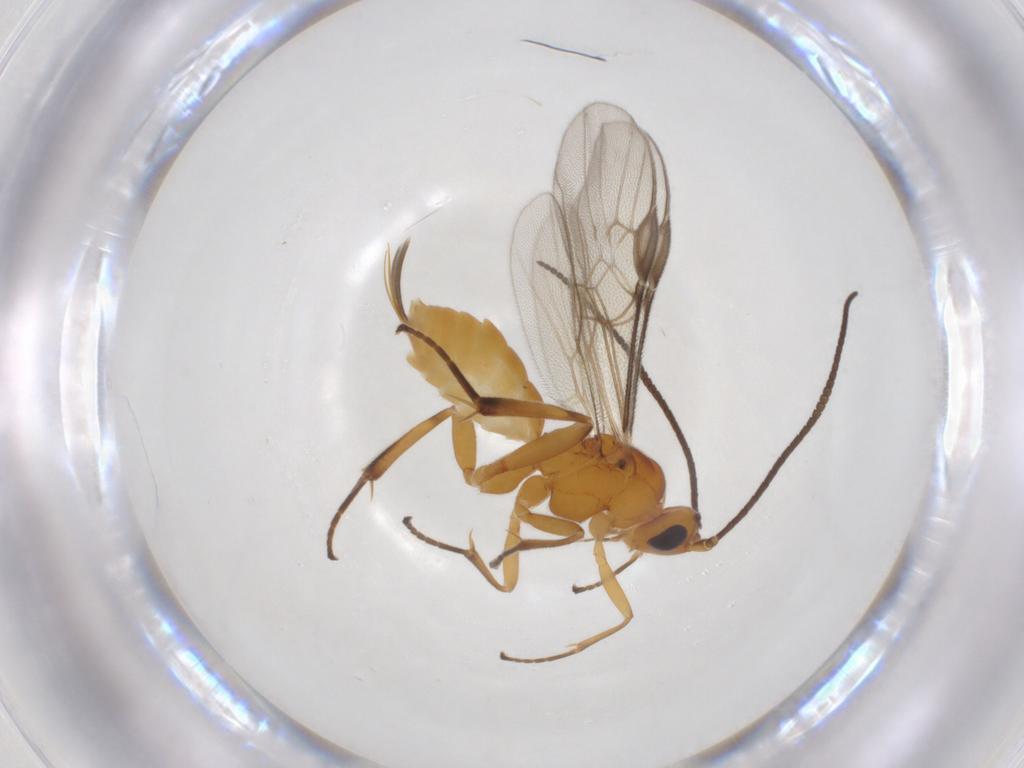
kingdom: Animalia
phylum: Arthropoda
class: Insecta
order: Hymenoptera
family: Braconidae
